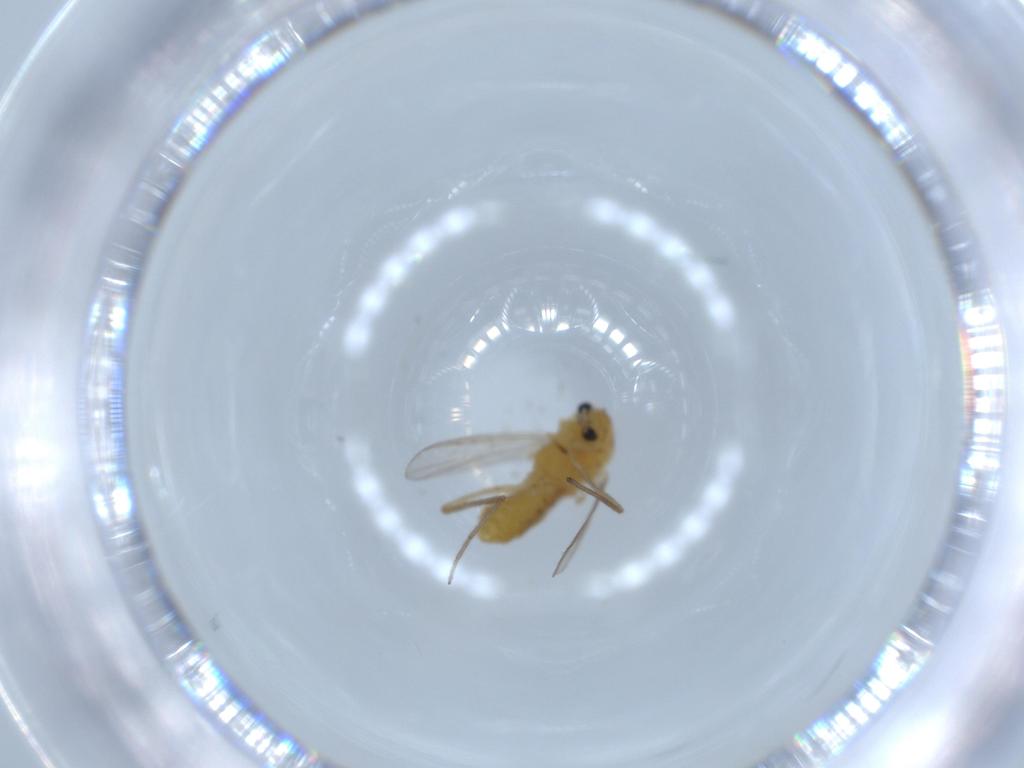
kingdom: Animalia
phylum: Arthropoda
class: Insecta
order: Diptera
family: Chironomidae
